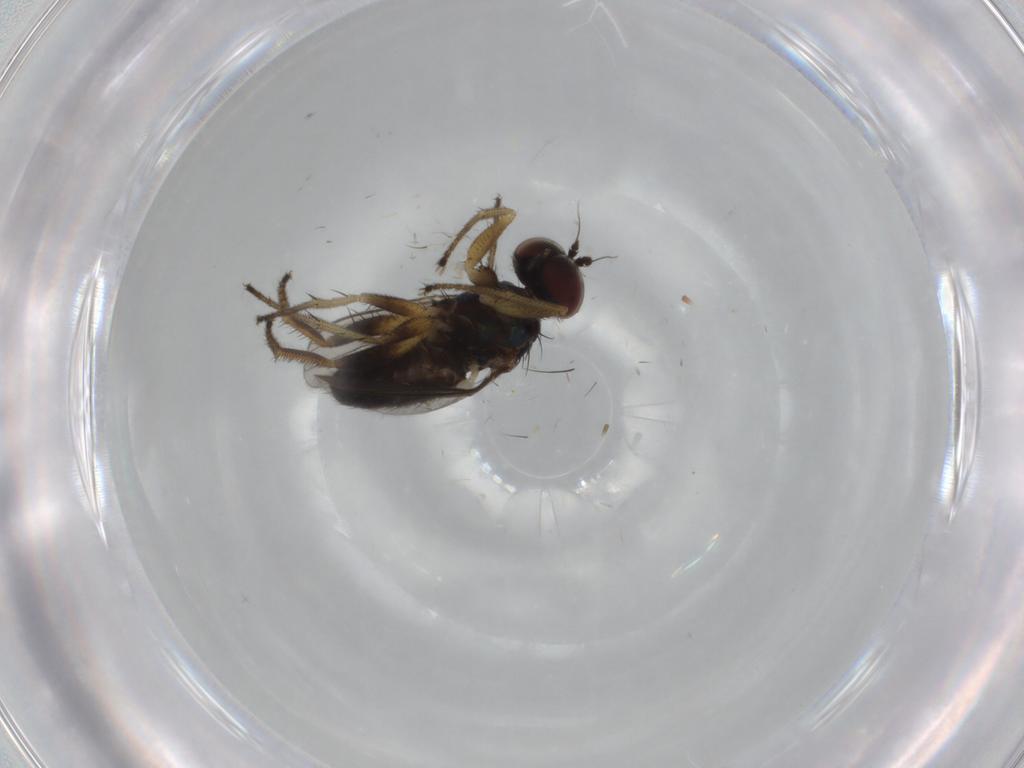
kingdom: Animalia
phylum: Arthropoda
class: Insecta
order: Diptera
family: Dolichopodidae
